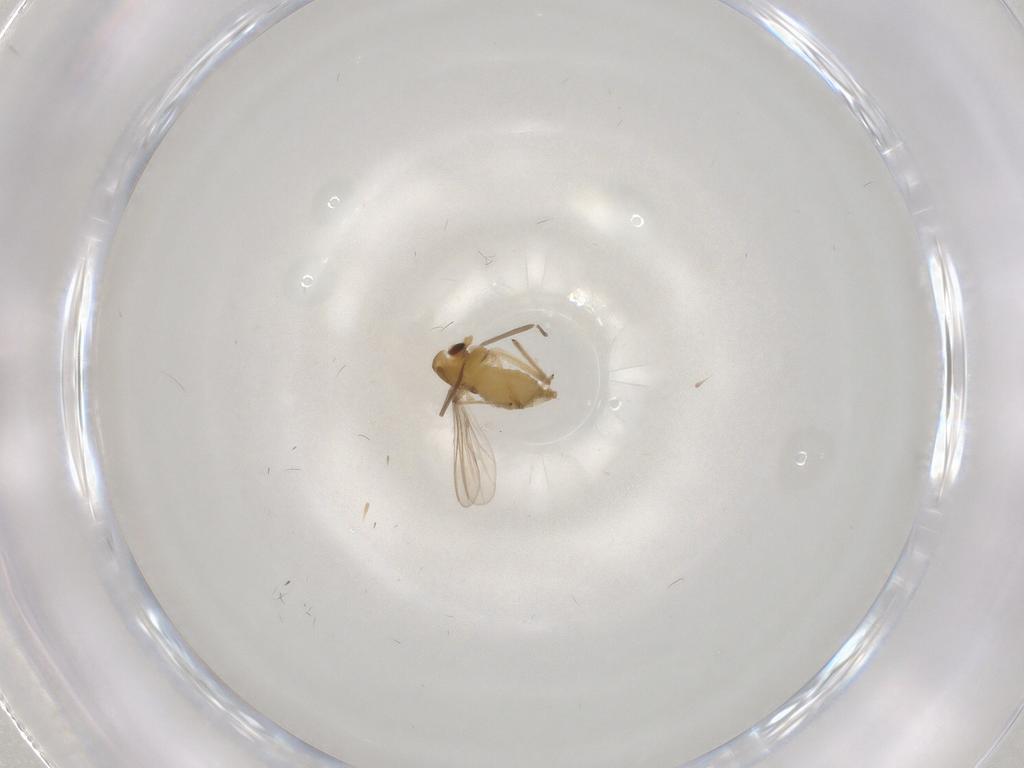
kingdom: Animalia
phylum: Arthropoda
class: Insecta
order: Diptera
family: Chironomidae
